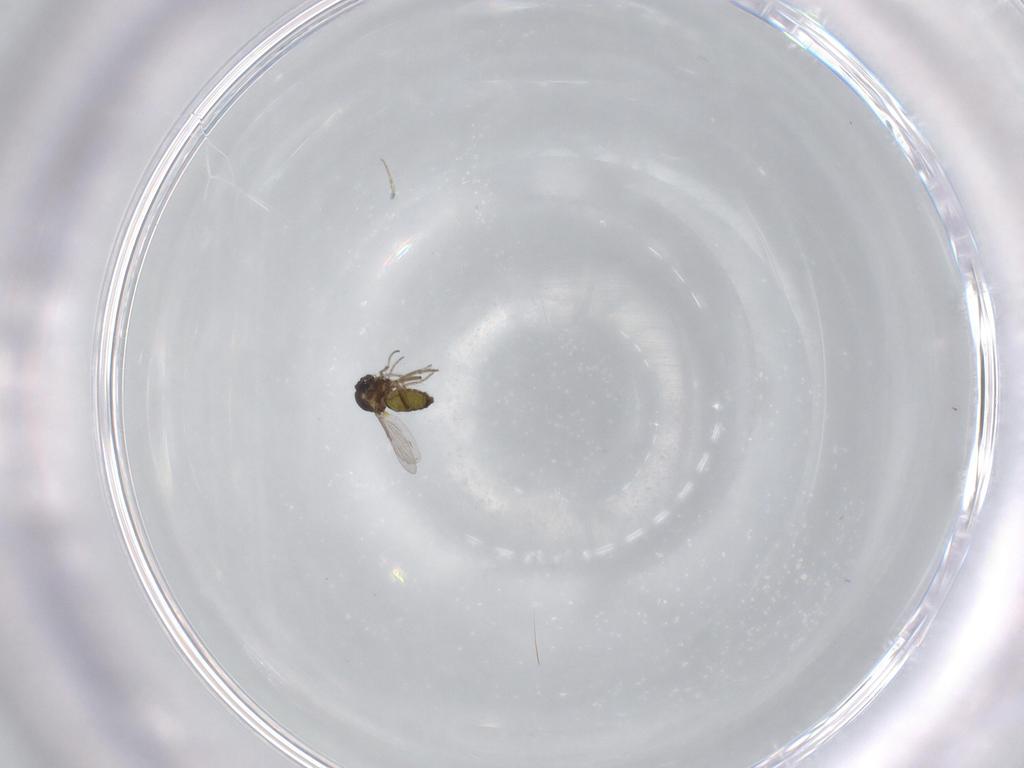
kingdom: Animalia
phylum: Arthropoda
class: Insecta
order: Diptera
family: Ceratopogonidae
